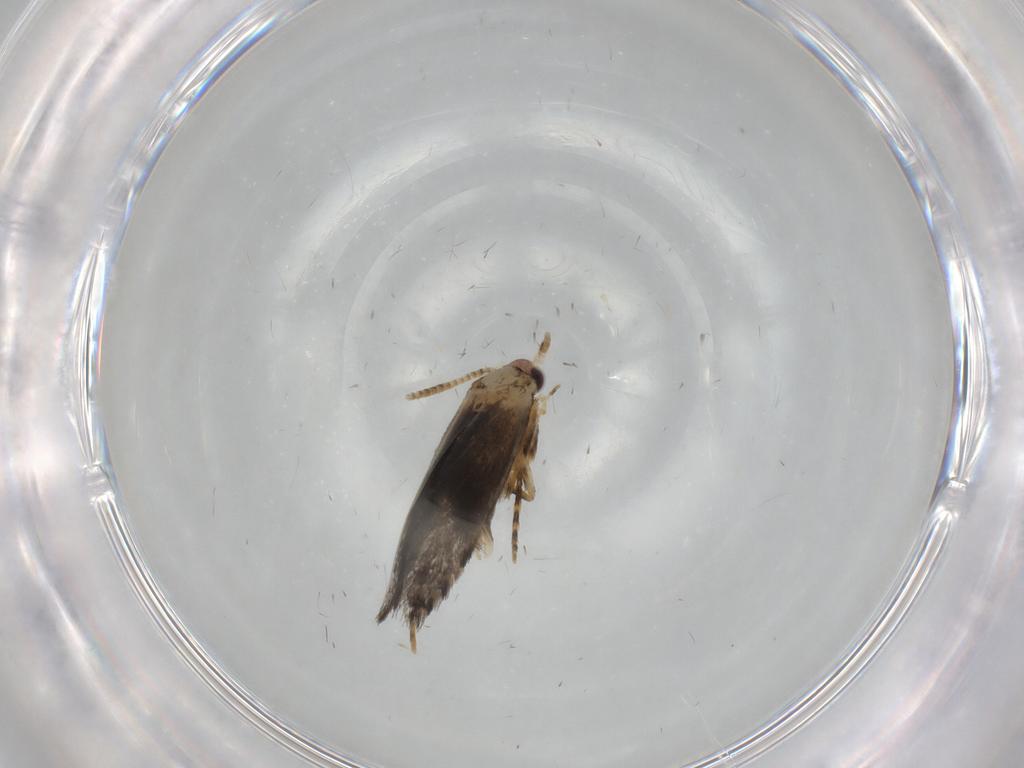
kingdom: Animalia
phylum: Arthropoda
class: Insecta
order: Lepidoptera
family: Tineidae
